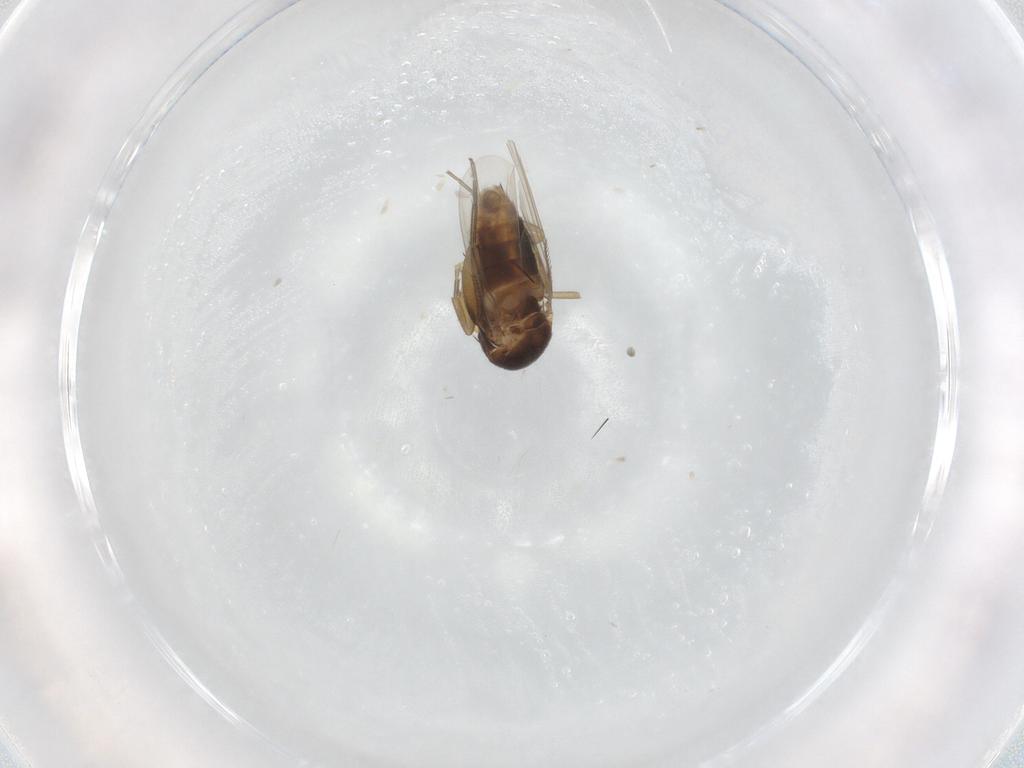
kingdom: Animalia
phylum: Arthropoda
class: Insecta
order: Diptera
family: Phoridae
